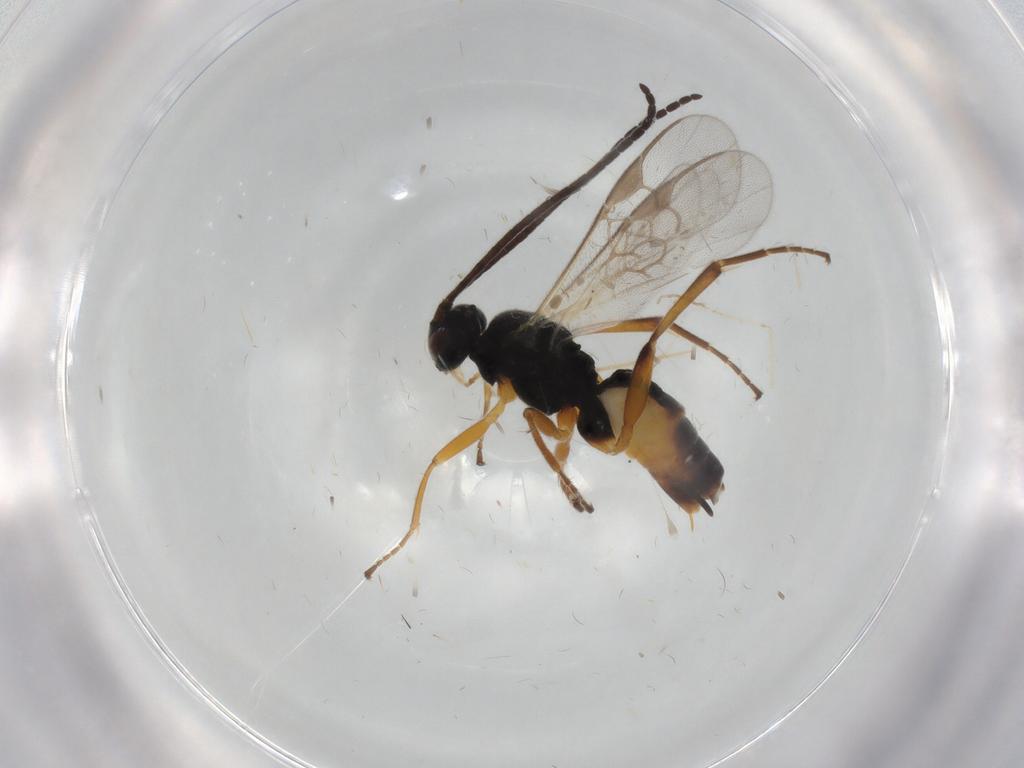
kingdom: Animalia
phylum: Arthropoda
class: Insecta
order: Hymenoptera
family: Braconidae
